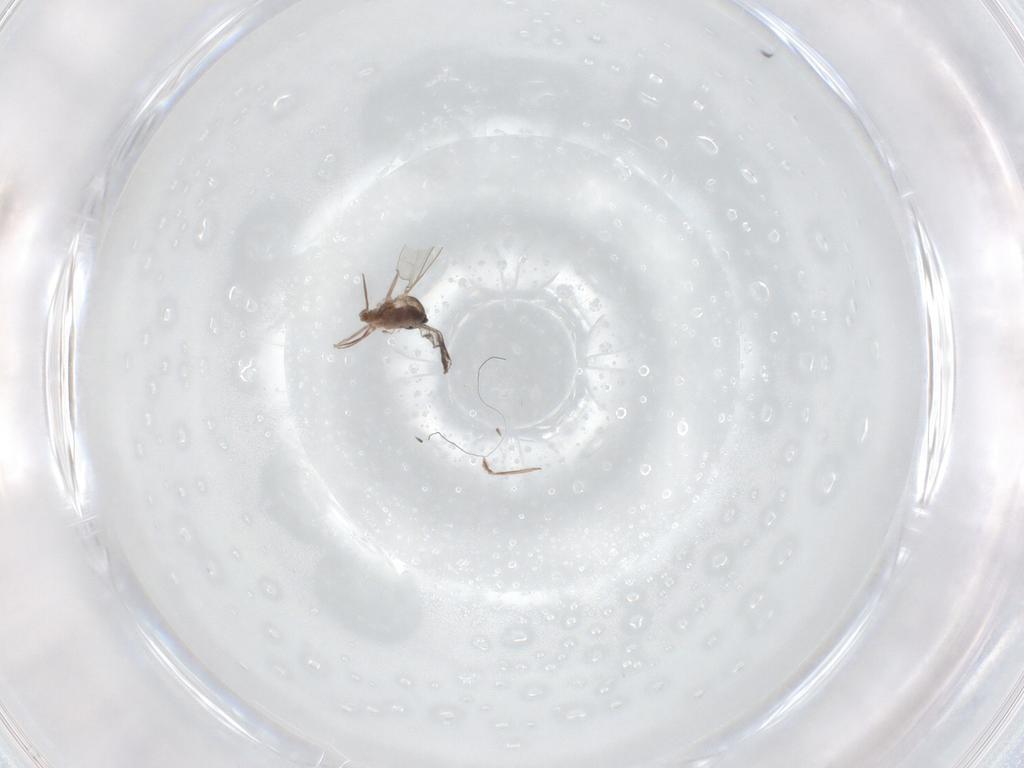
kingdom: Animalia
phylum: Arthropoda
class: Insecta
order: Diptera
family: Cecidomyiidae
